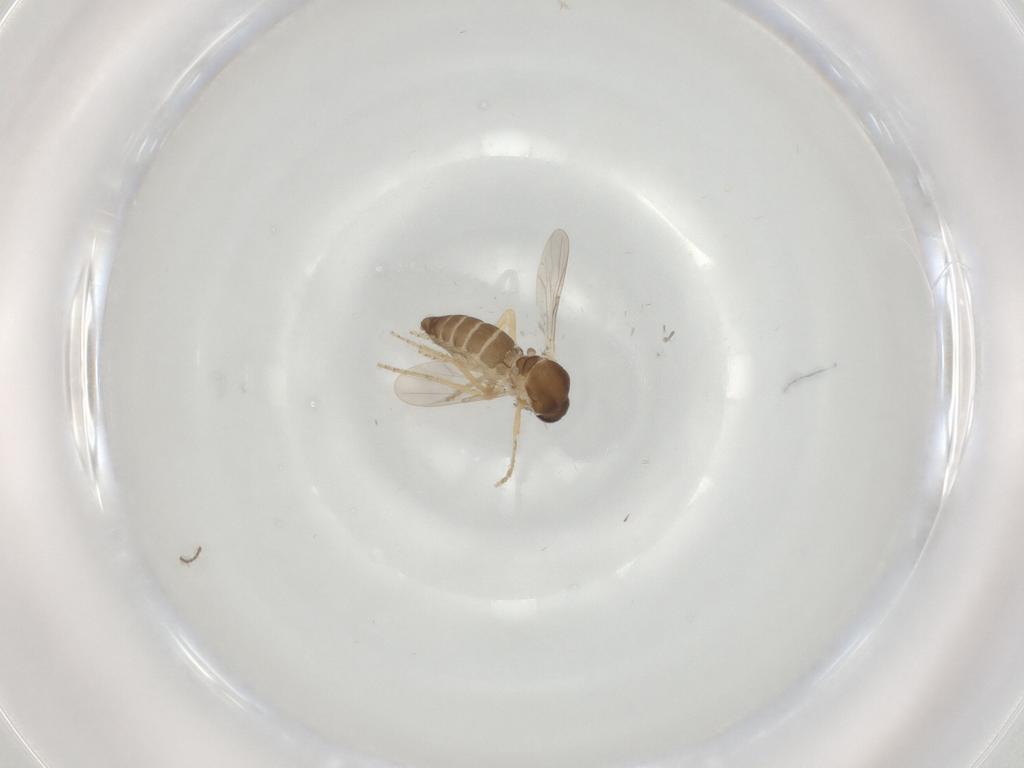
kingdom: Animalia
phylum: Arthropoda
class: Insecta
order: Diptera
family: Ceratopogonidae
